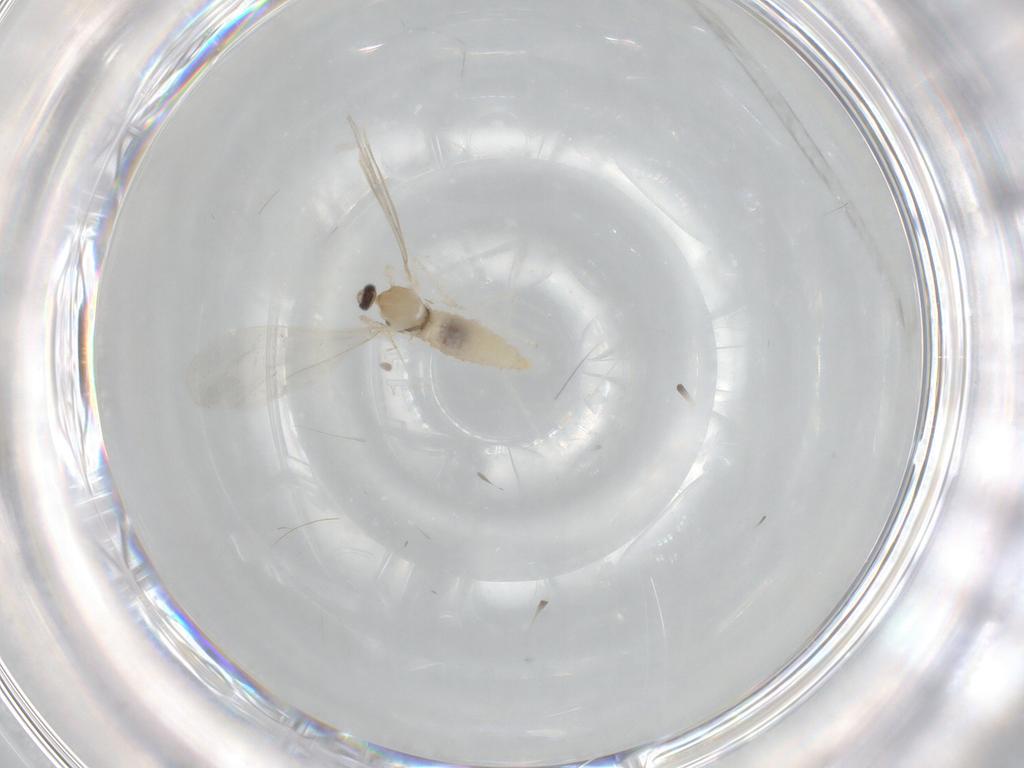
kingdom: Animalia
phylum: Arthropoda
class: Insecta
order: Diptera
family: Cecidomyiidae
